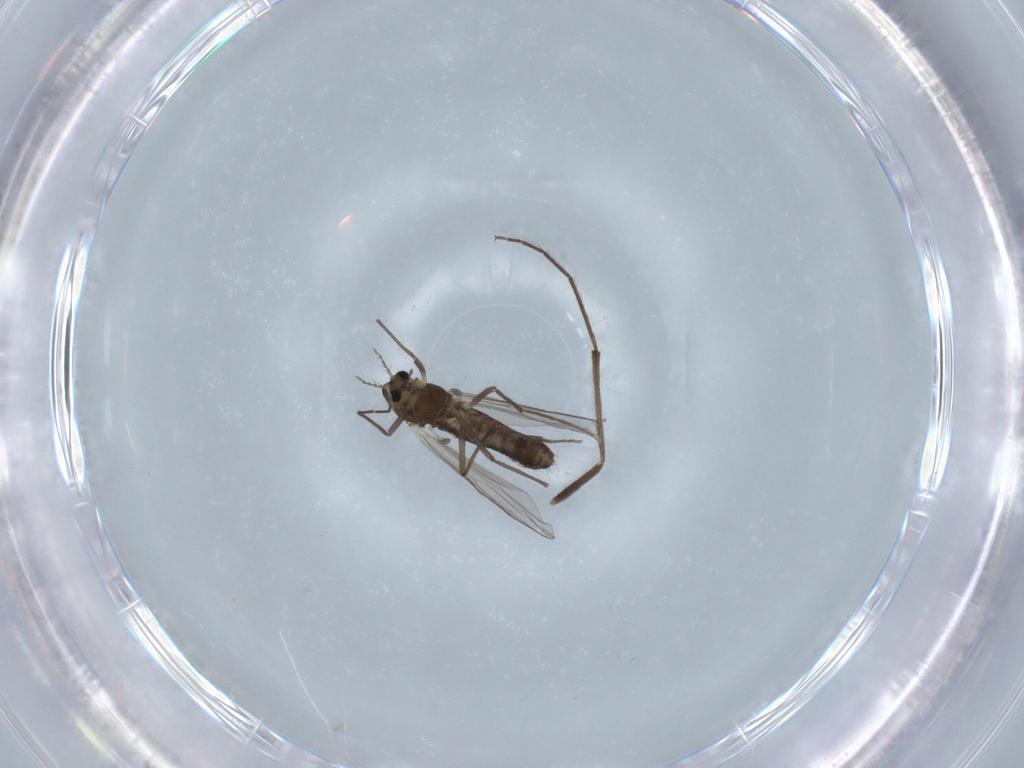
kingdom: Animalia
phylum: Arthropoda
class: Insecta
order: Diptera
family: Chironomidae
